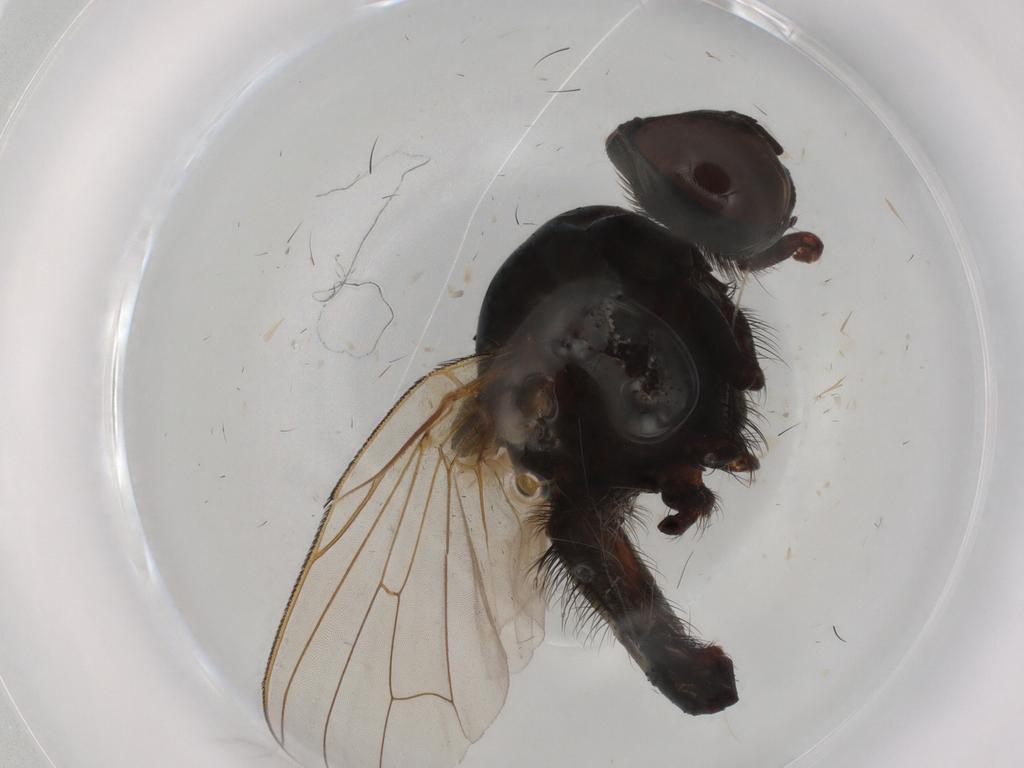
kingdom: Animalia
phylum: Arthropoda
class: Insecta
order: Diptera
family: Anthomyiidae
